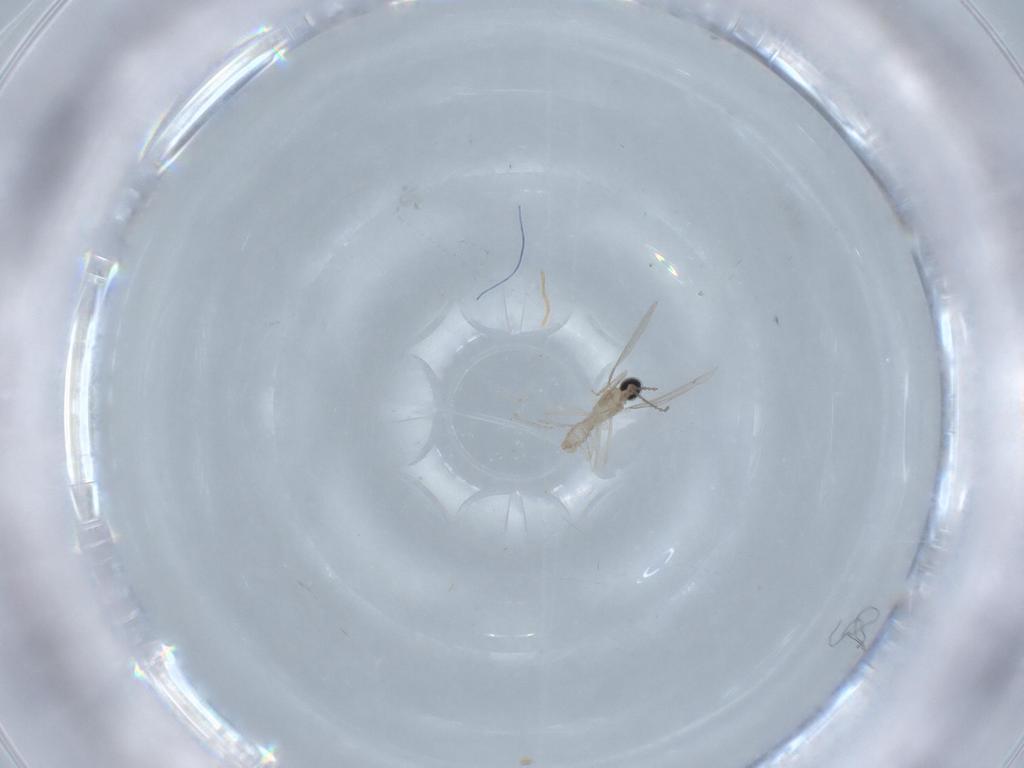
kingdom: Animalia
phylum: Arthropoda
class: Insecta
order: Diptera
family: Cecidomyiidae
